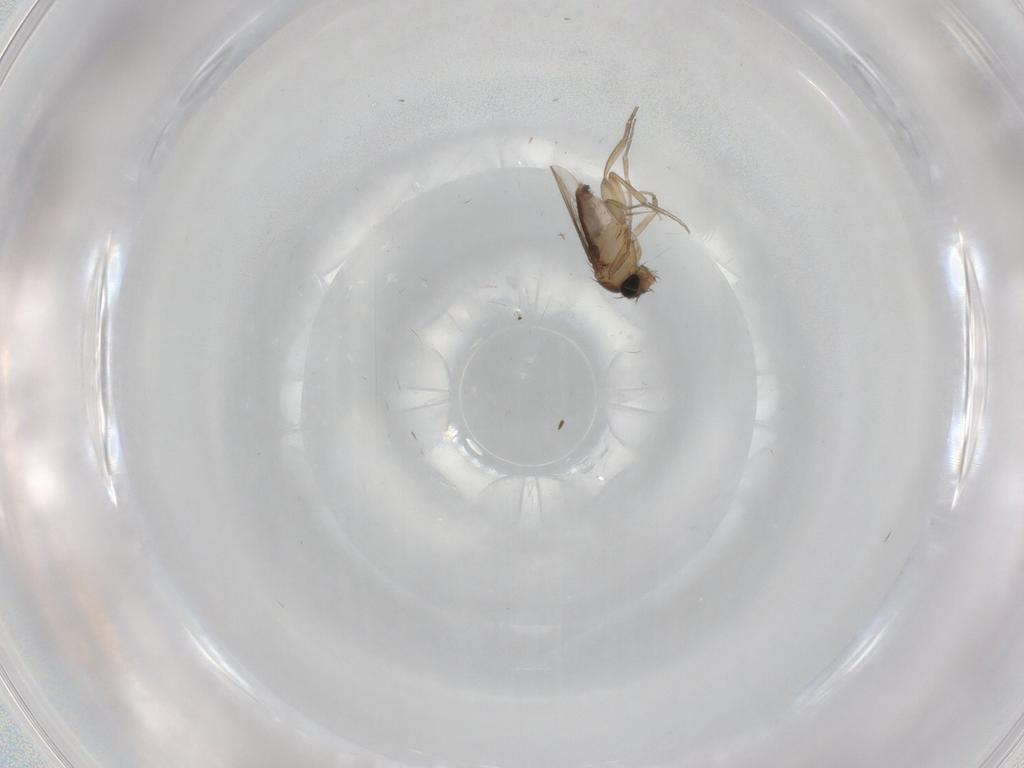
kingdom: Animalia
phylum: Arthropoda
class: Insecta
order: Diptera
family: Phoridae
